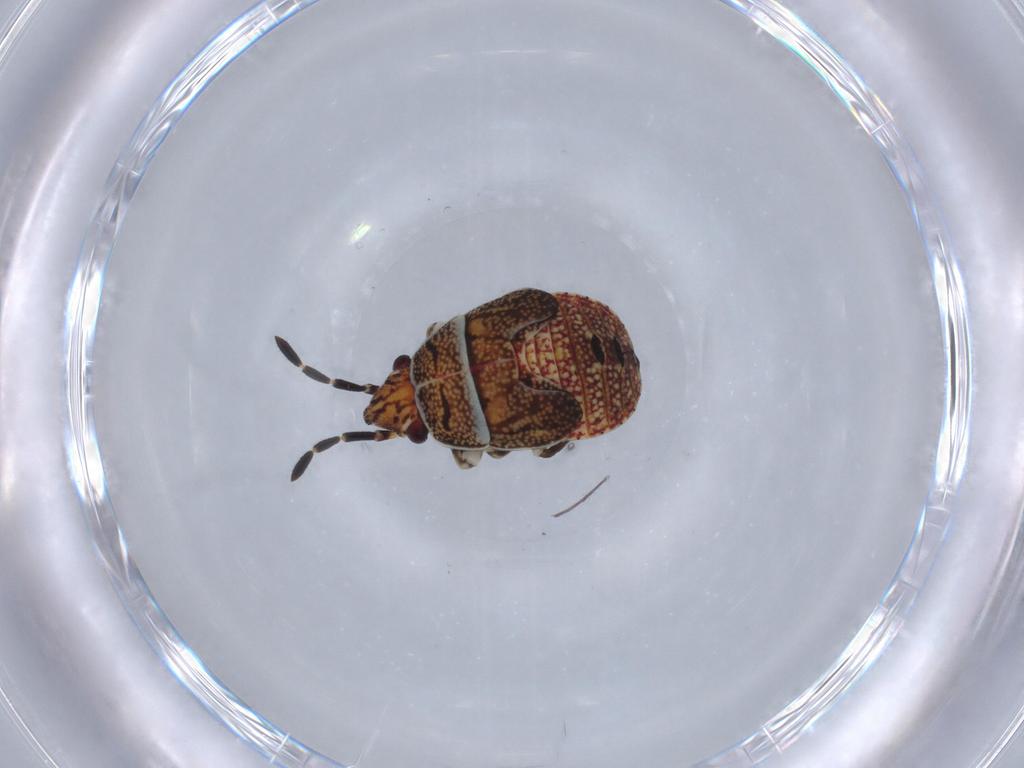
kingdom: Animalia
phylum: Arthropoda
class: Insecta
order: Hemiptera
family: Rhyparochromidae
